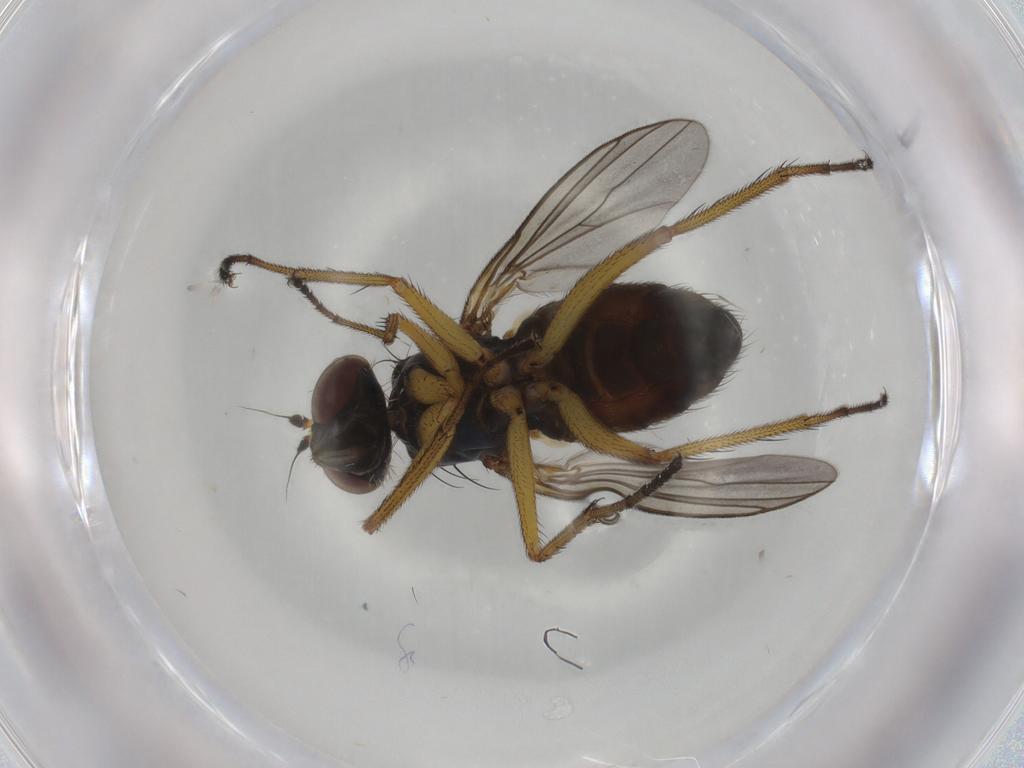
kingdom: Animalia
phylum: Arthropoda
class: Insecta
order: Diptera
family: Calliphoridae
